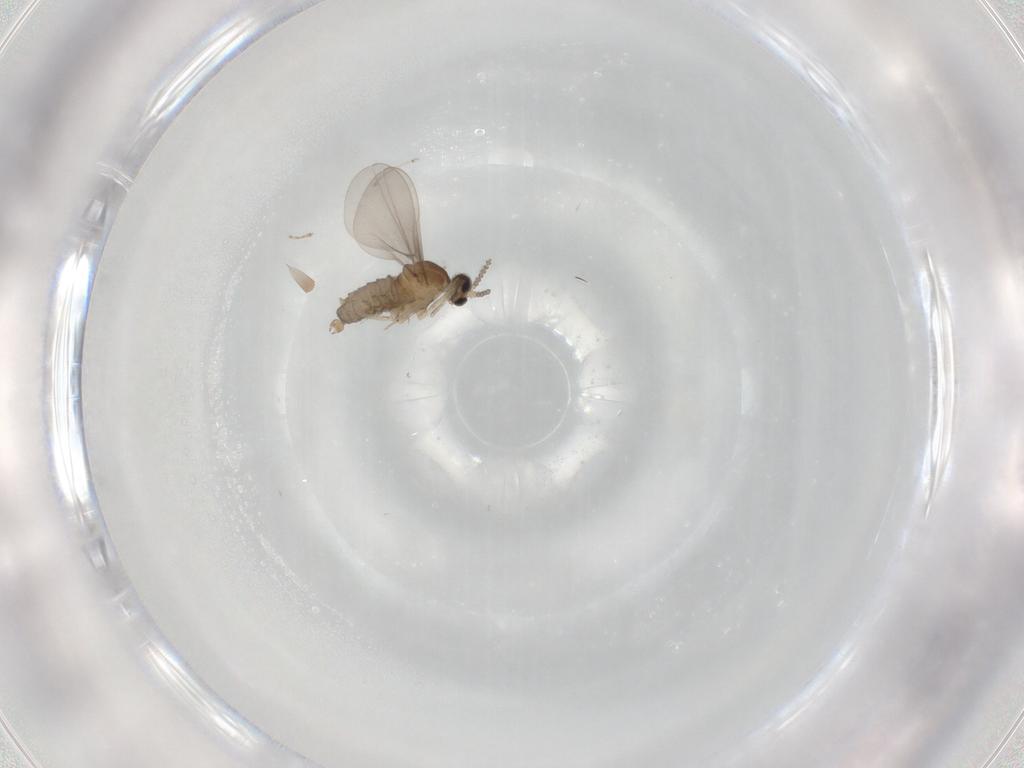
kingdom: Animalia
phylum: Arthropoda
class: Insecta
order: Diptera
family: Cecidomyiidae
